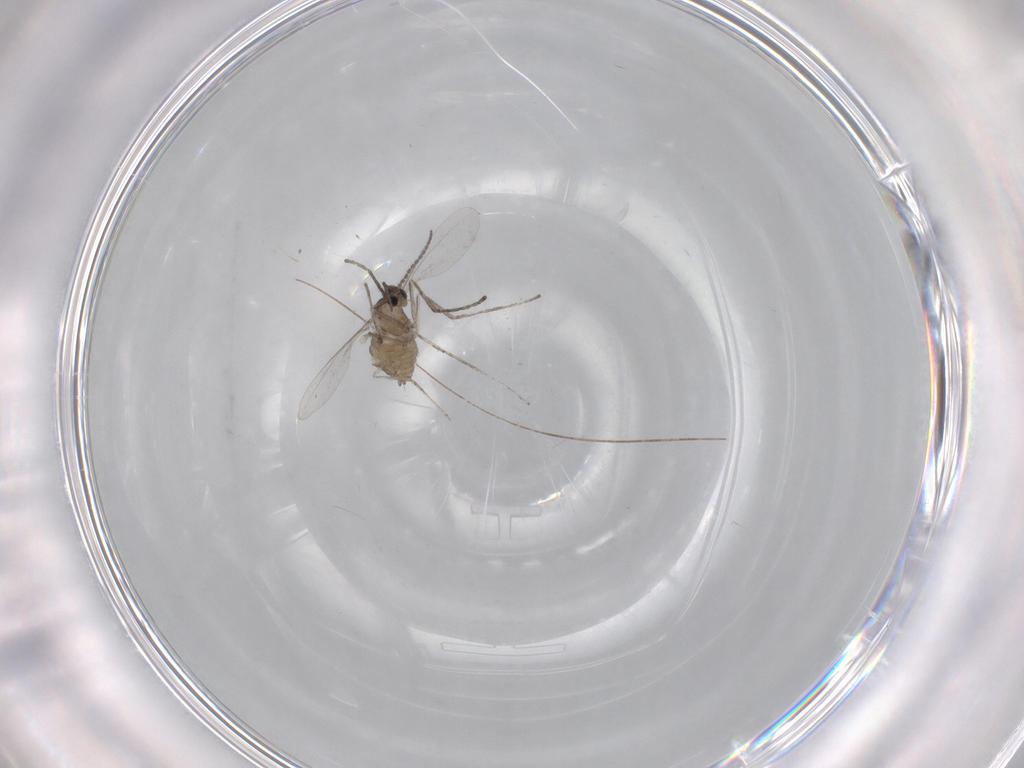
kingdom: Animalia
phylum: Arthropoda
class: Insecta
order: Diptera
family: Cecidomyiidae
